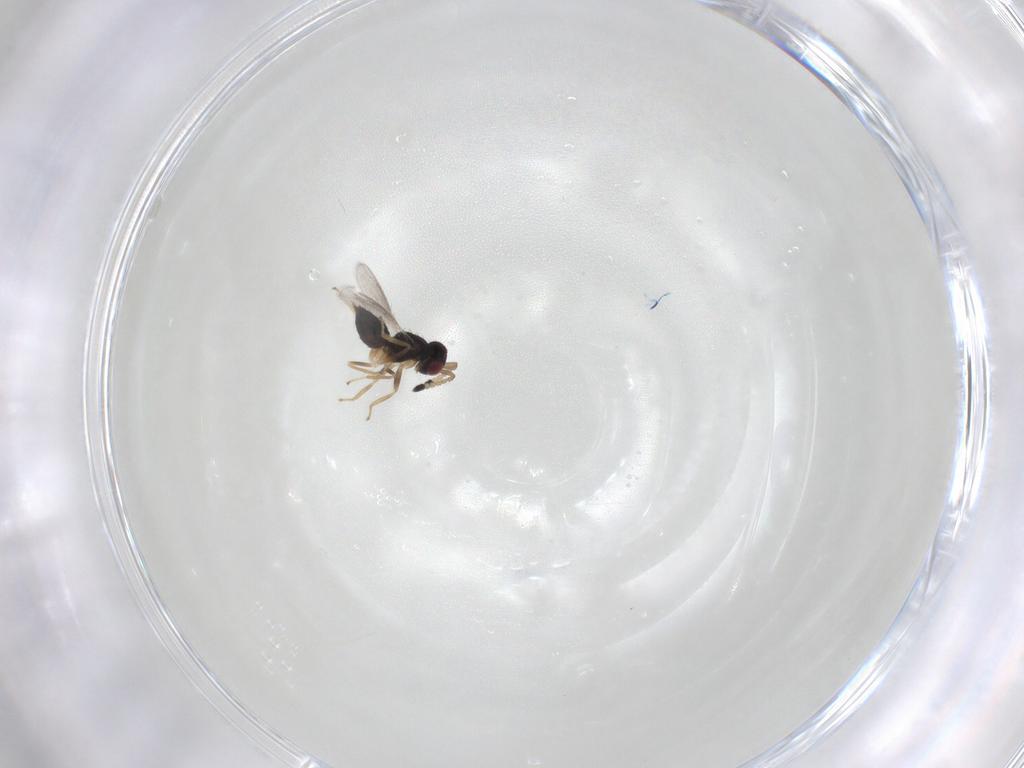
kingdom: Animalia
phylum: Arthropoda
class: Insecta
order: Hymenoptera
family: Eulophidae
